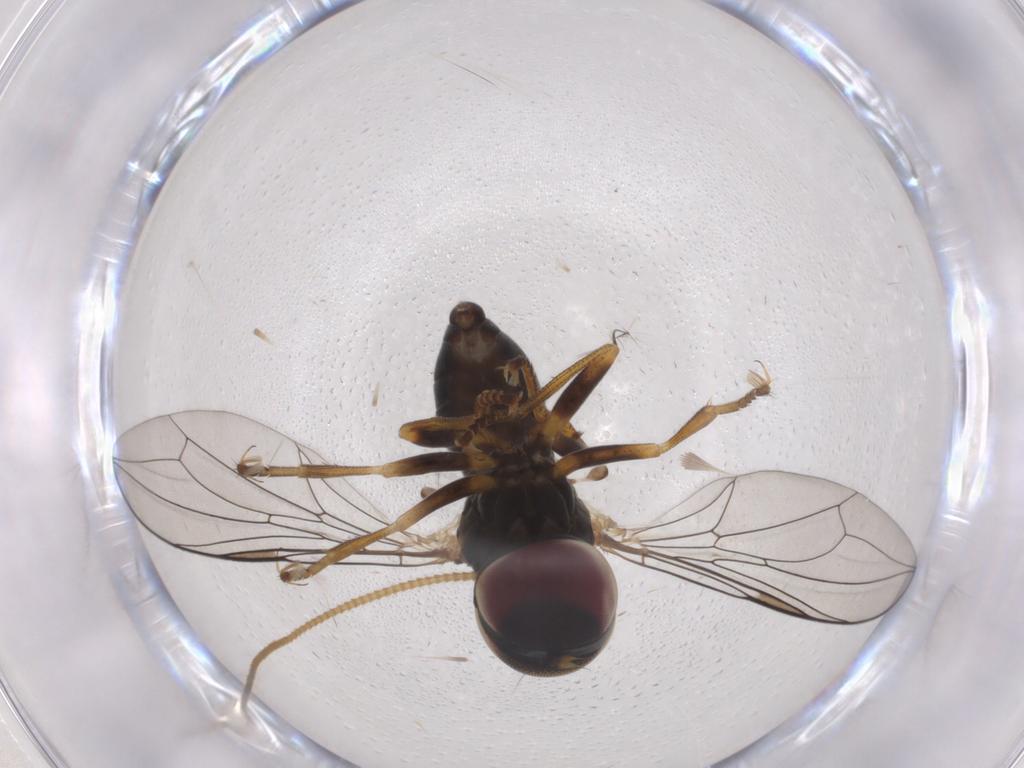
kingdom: Animalia
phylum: Arthropoda
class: Insecta
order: Diptera
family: Pipunculidae
